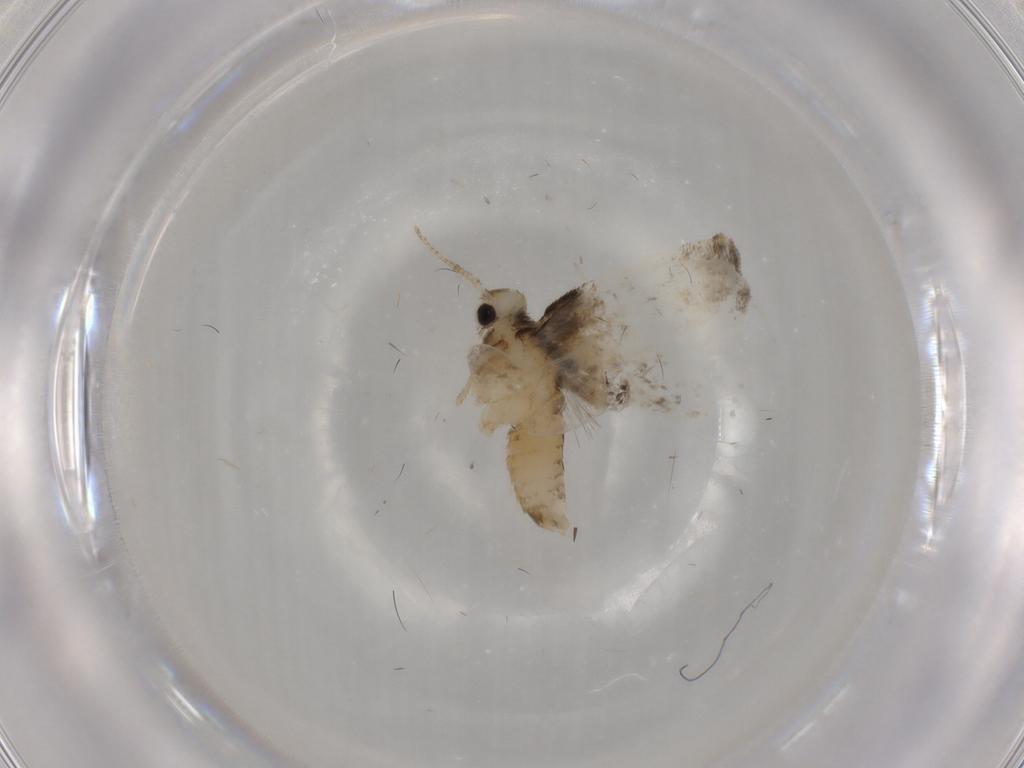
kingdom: Animalia
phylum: Arthropoda
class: Insecta
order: Lepidoptera
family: Psychidae
